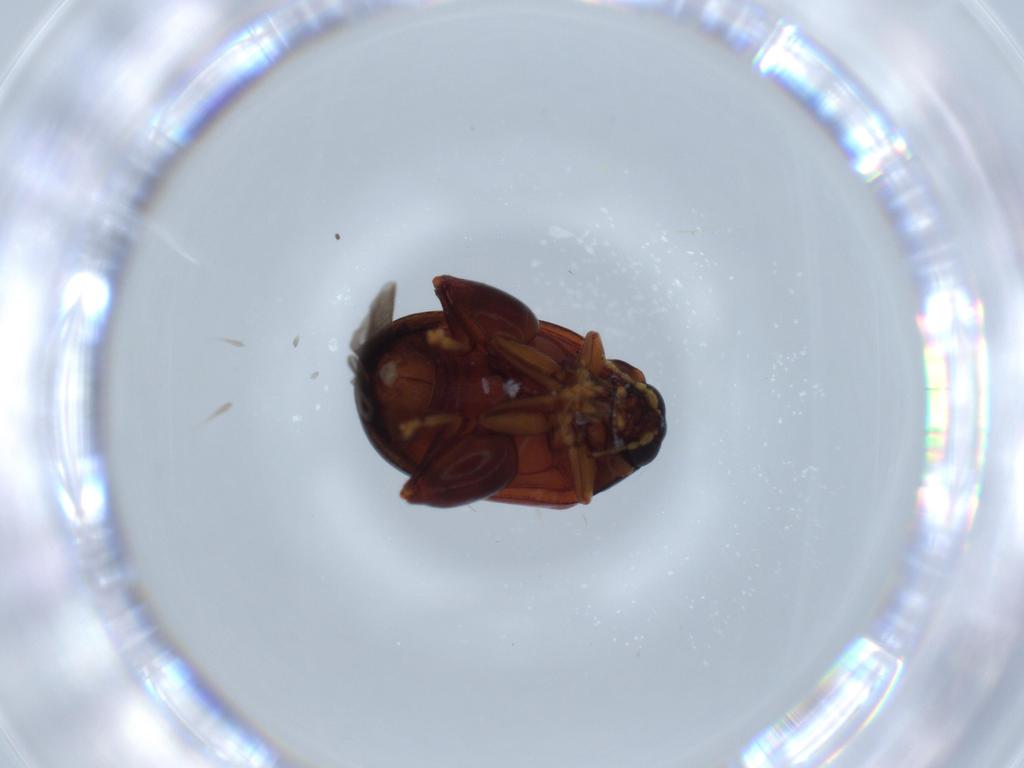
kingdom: Animalia
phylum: Arthropoda
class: Insecta
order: Coleoptera
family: Chrysomelidae
